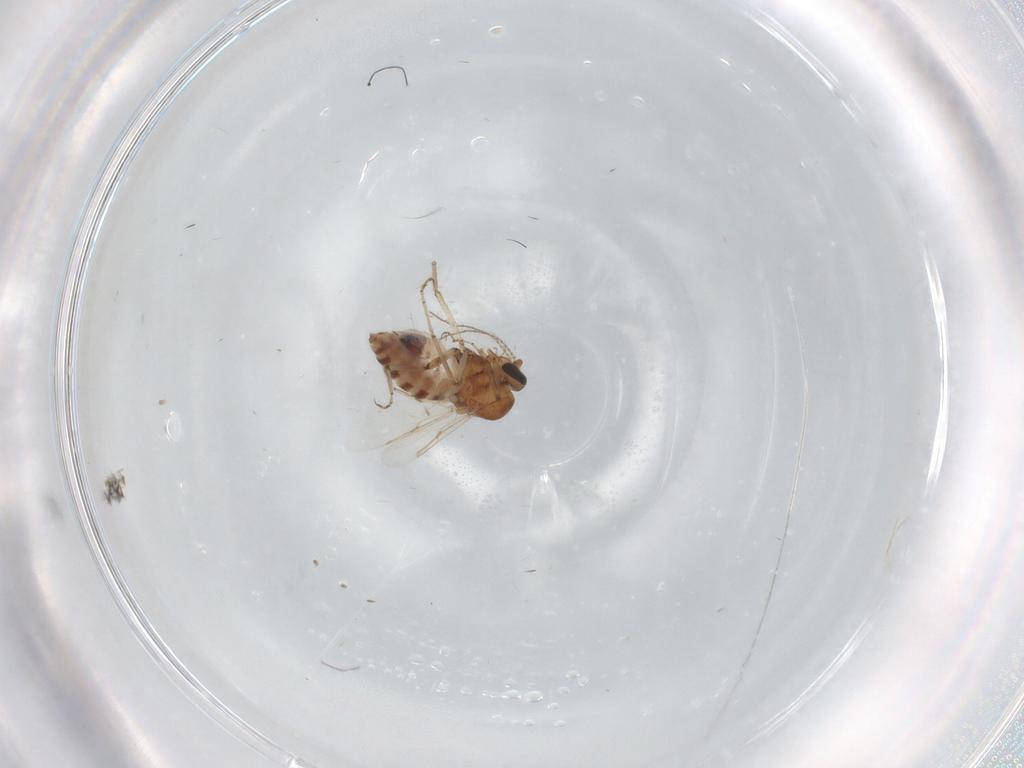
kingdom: Animalia
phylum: Arthropoda
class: Insecta
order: Diptera
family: Ceratopogonidae
